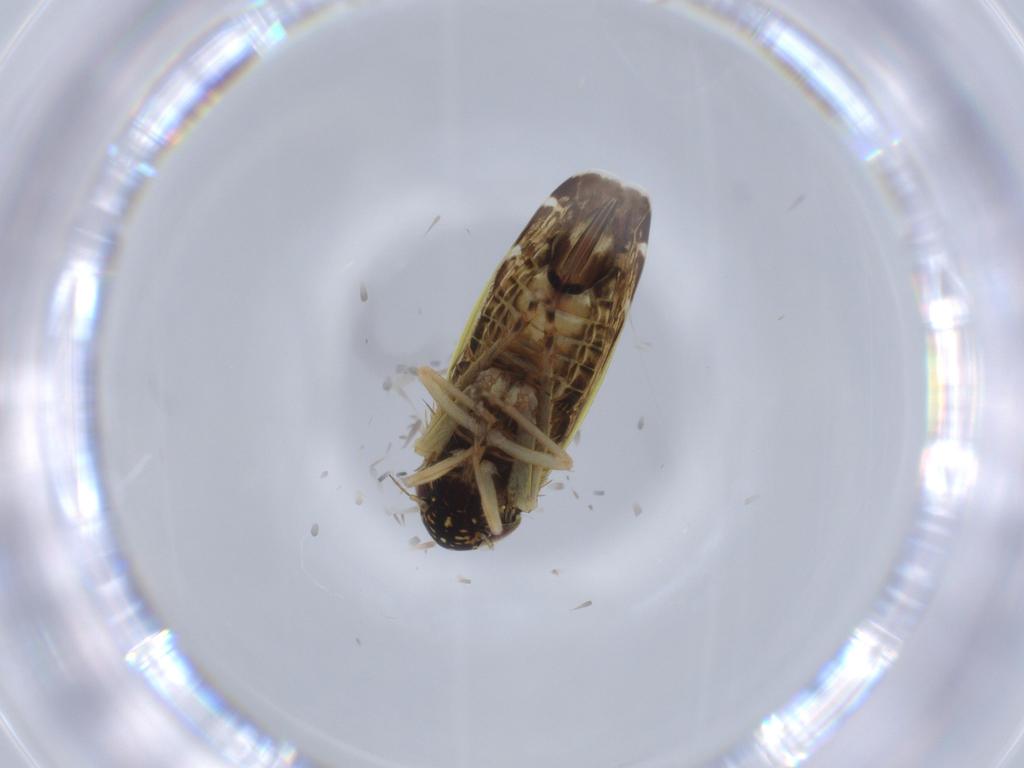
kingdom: Animalia
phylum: Arthropoda
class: Insecta
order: Hemiptera
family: Cicadellidae
